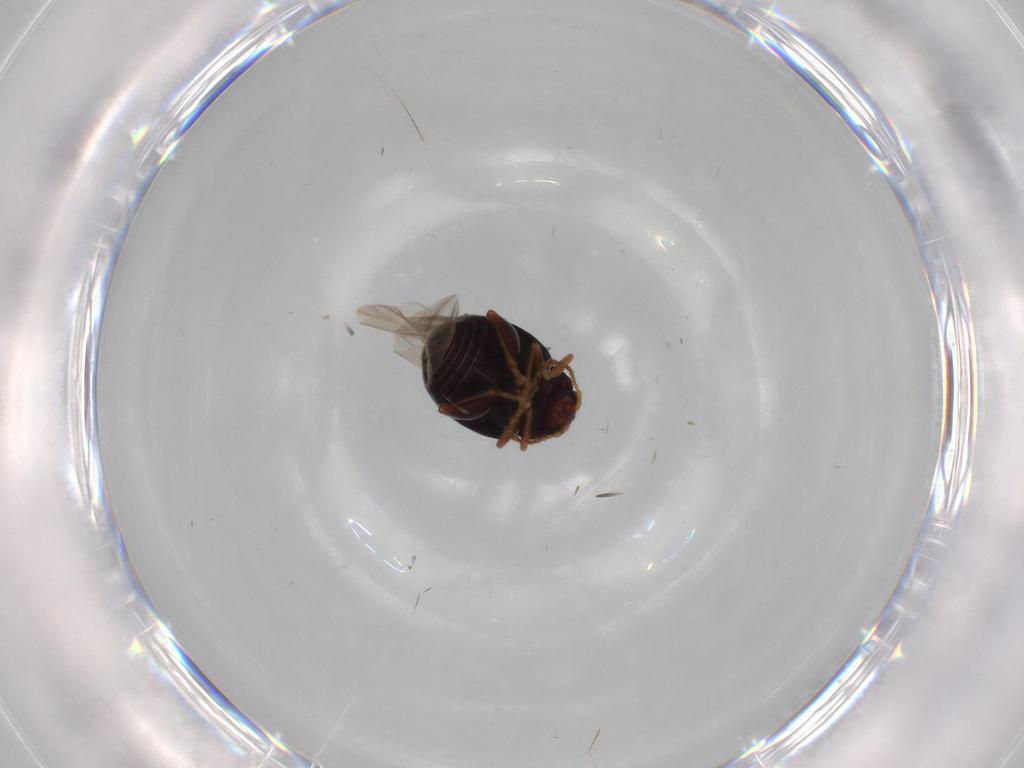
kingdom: Animalia
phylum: Arthropoda
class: Insecta
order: Coleoptera
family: Chrysomelidae
